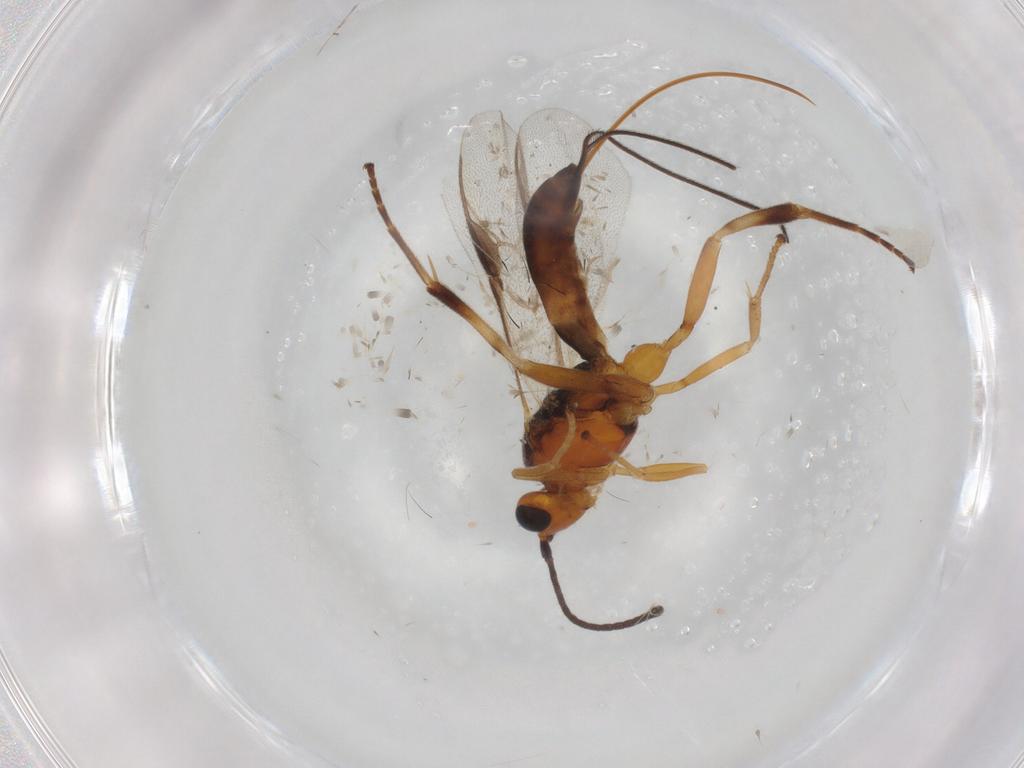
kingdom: Animalia
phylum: Arthropoda
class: Insecta
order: Hymenoptera
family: Braconidae
